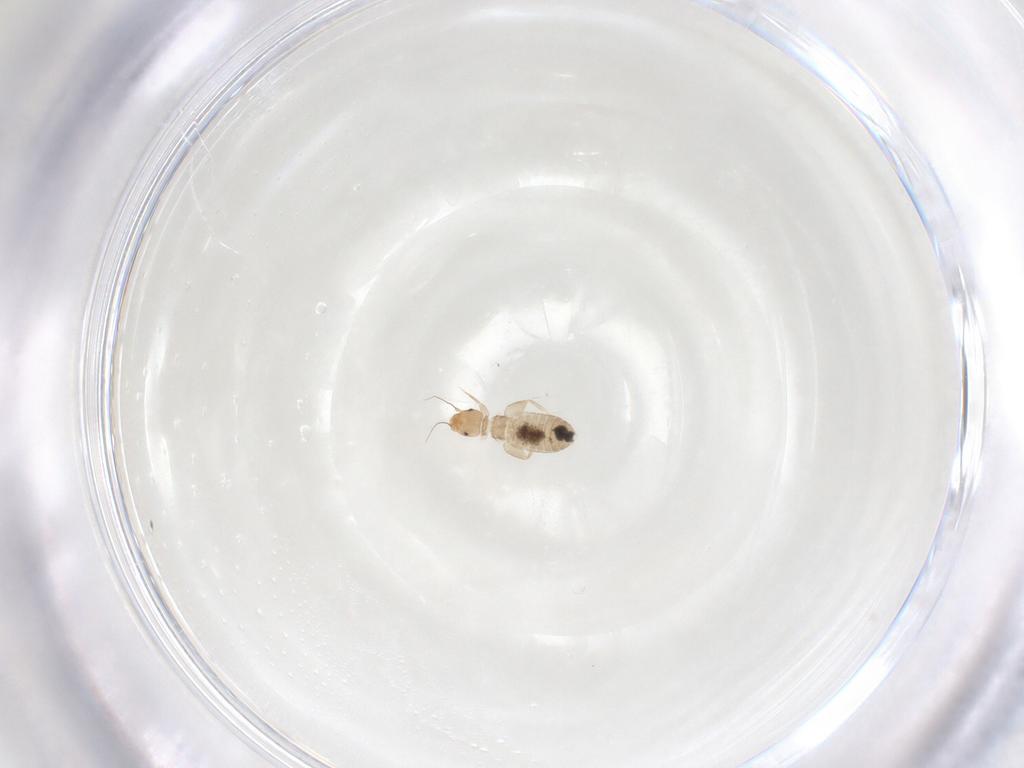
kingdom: Animalia
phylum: Arthropoda
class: Insecta
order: Psocodea
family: Liposcelididae
